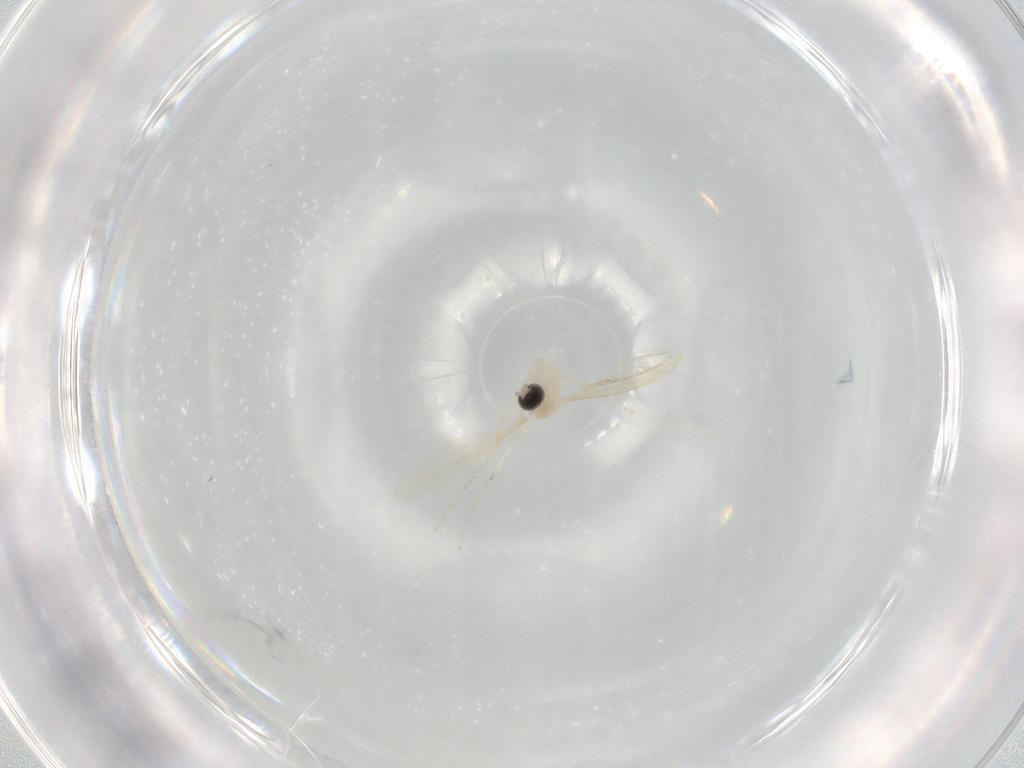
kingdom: Animalia
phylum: Arthropoda
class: Insecta
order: Diptera
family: Cecidomyiidae
